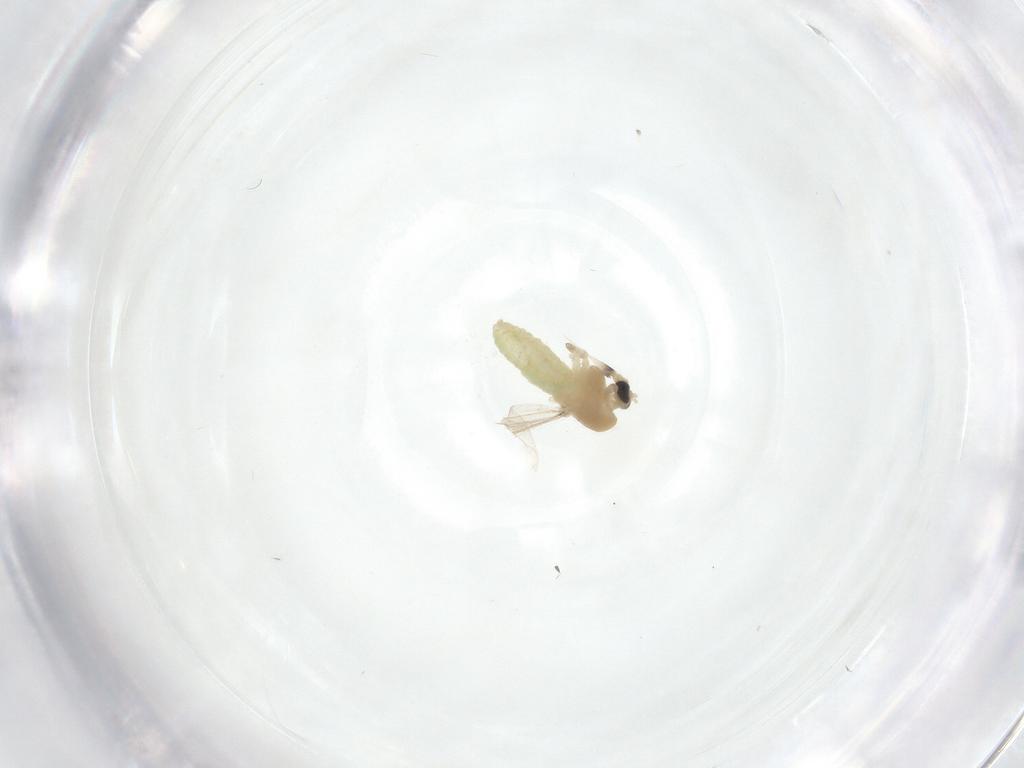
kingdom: Animalia
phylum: Arthropoda
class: Insecta
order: Diptera
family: Chironomidae
